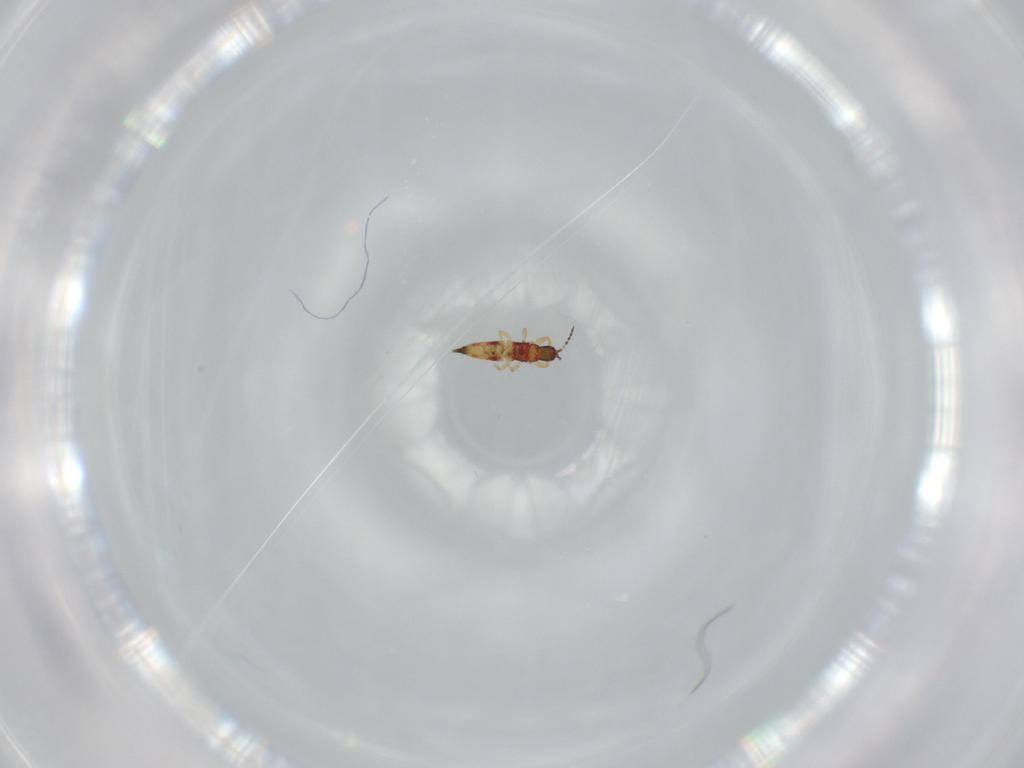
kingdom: Animalia
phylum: Arthropoda
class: Insecta
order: Thysanoptera
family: Phlaeothripidae
